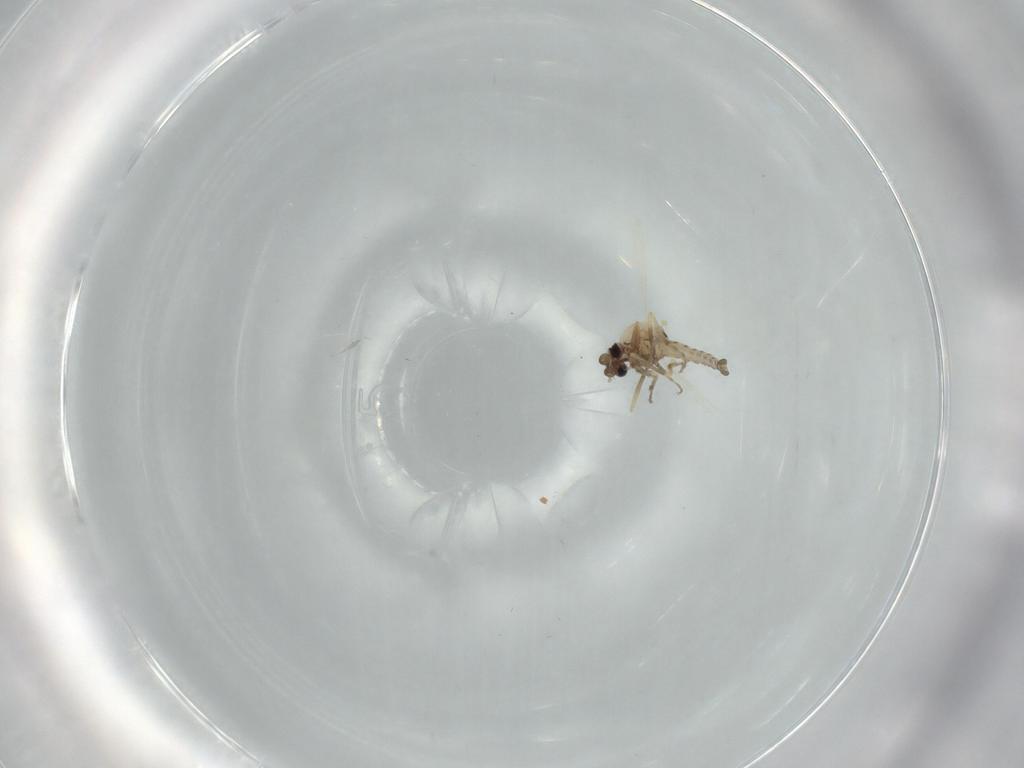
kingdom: Animalia
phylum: Arthropoda
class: Insecta
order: Diptera
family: Ceratopogonidae
